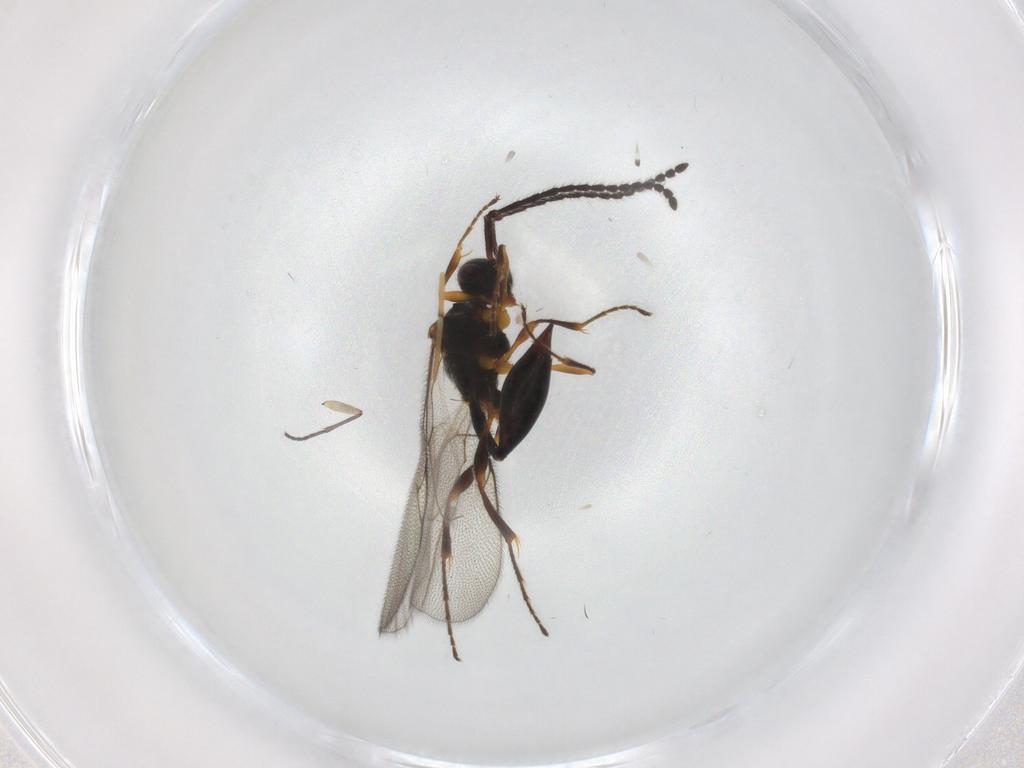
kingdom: Animalia
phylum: Arthropoda
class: Insecta
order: Hymenoptera
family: Diapriidae
